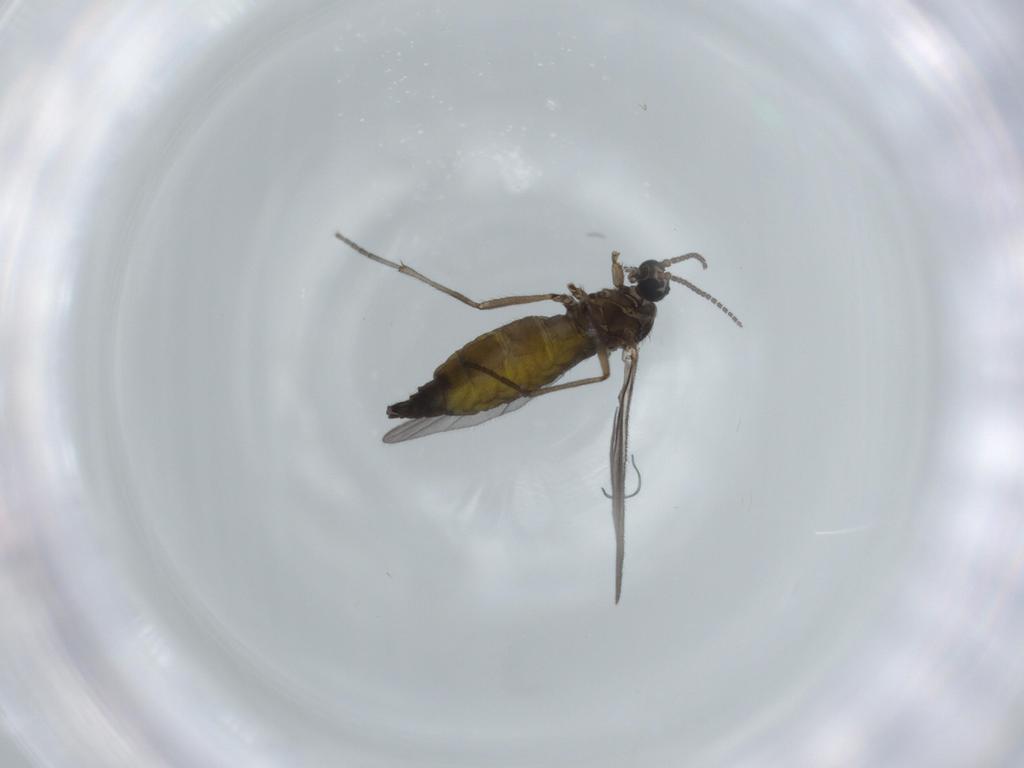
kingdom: Animalia
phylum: Arthropoda
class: Insecta
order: Diptera
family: Sciaridae
